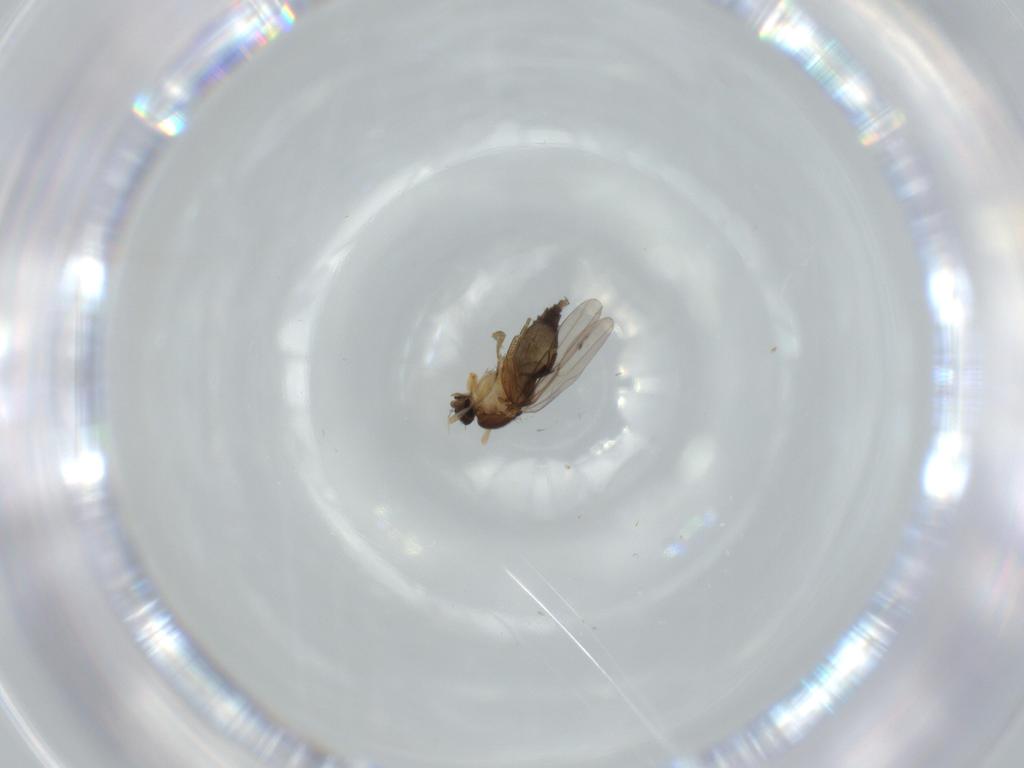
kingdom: Animalia
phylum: Arthropoda
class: Insecta
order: Diptera
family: Phoridae
